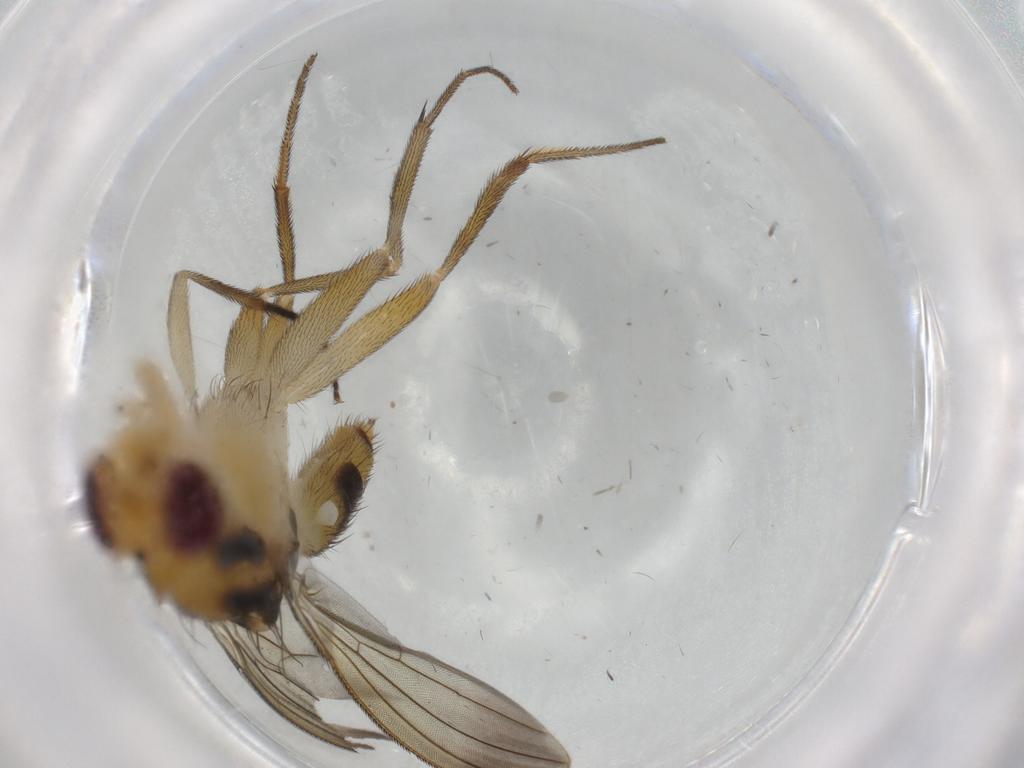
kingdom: Animalia
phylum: Arthropoda
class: Insecta
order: Diptera
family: Clusiidae
